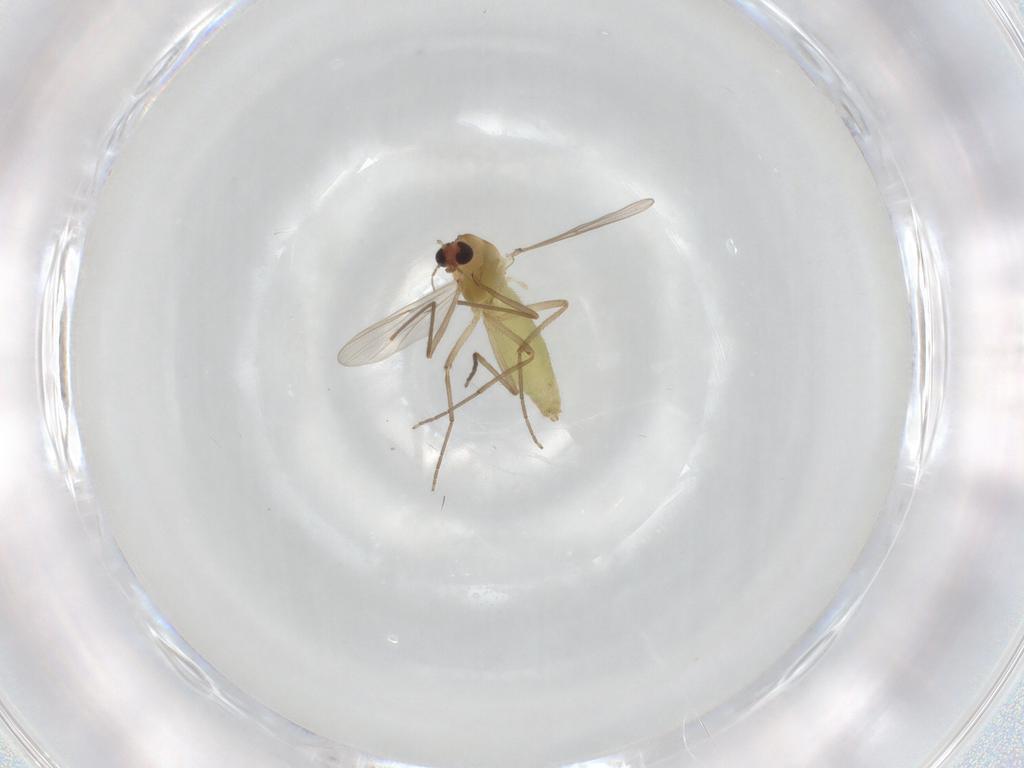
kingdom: Animalia
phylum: Arthropoda
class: Insecta
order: Diptera
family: Chironomidae
